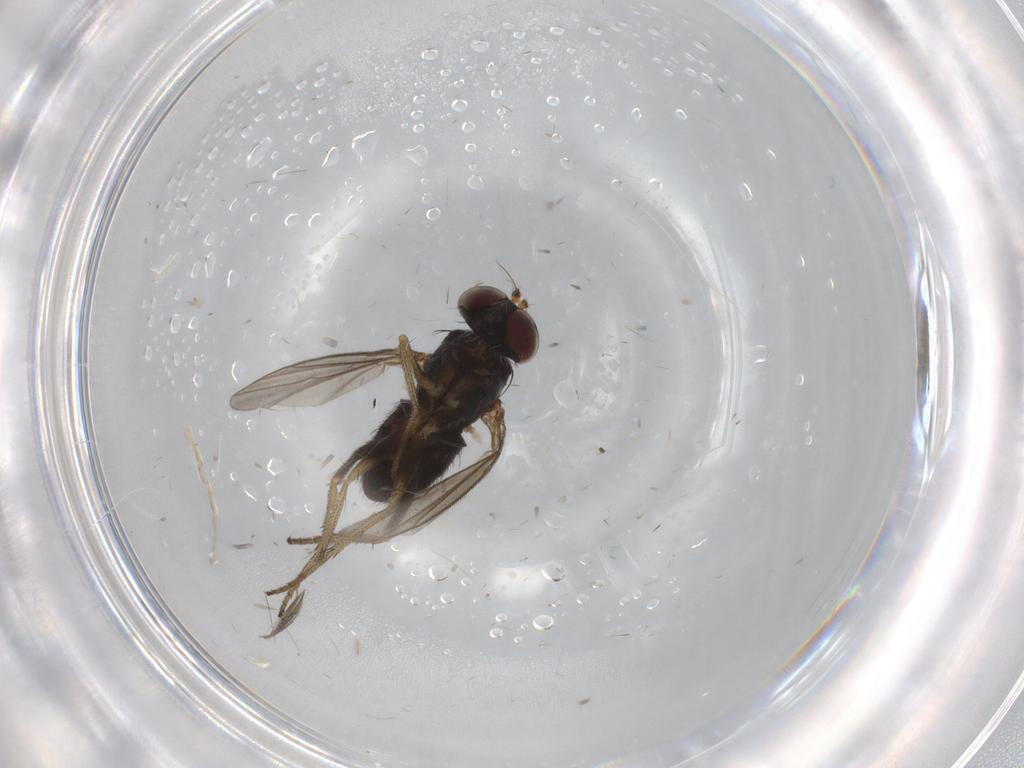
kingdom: Animalia
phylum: Arthropoda
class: Insecta
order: Diptera
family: Ceratopogonidae
